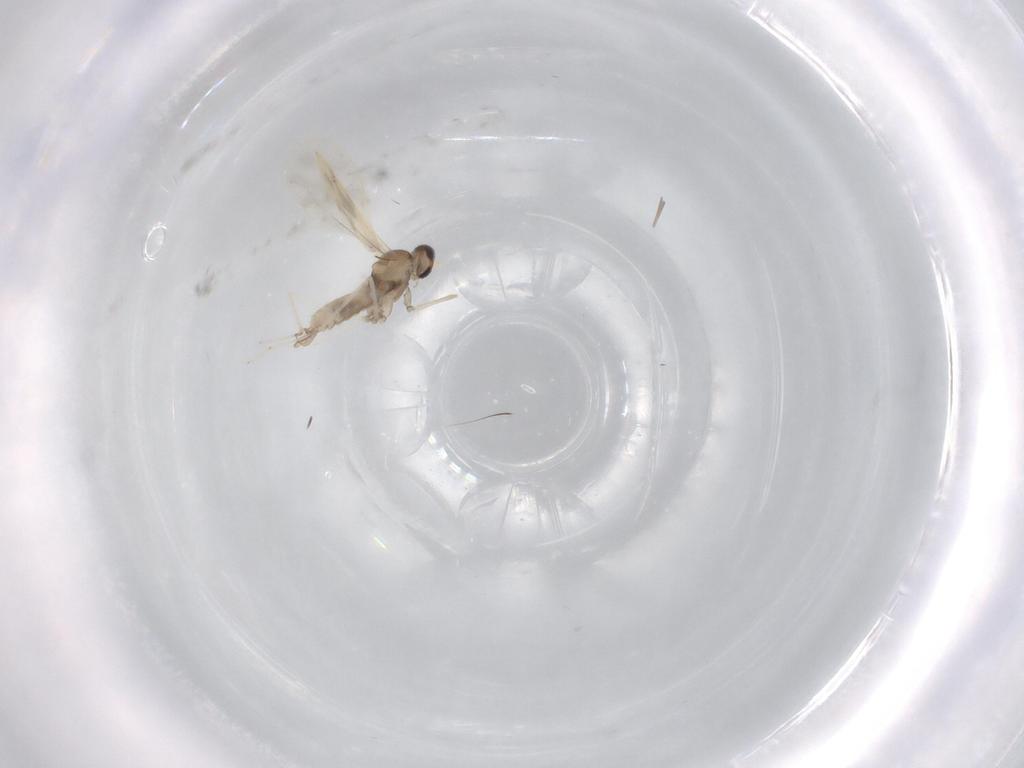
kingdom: Animalia
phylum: Arthropoda
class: Insecta
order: Diptera
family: Cecidomyiidae
